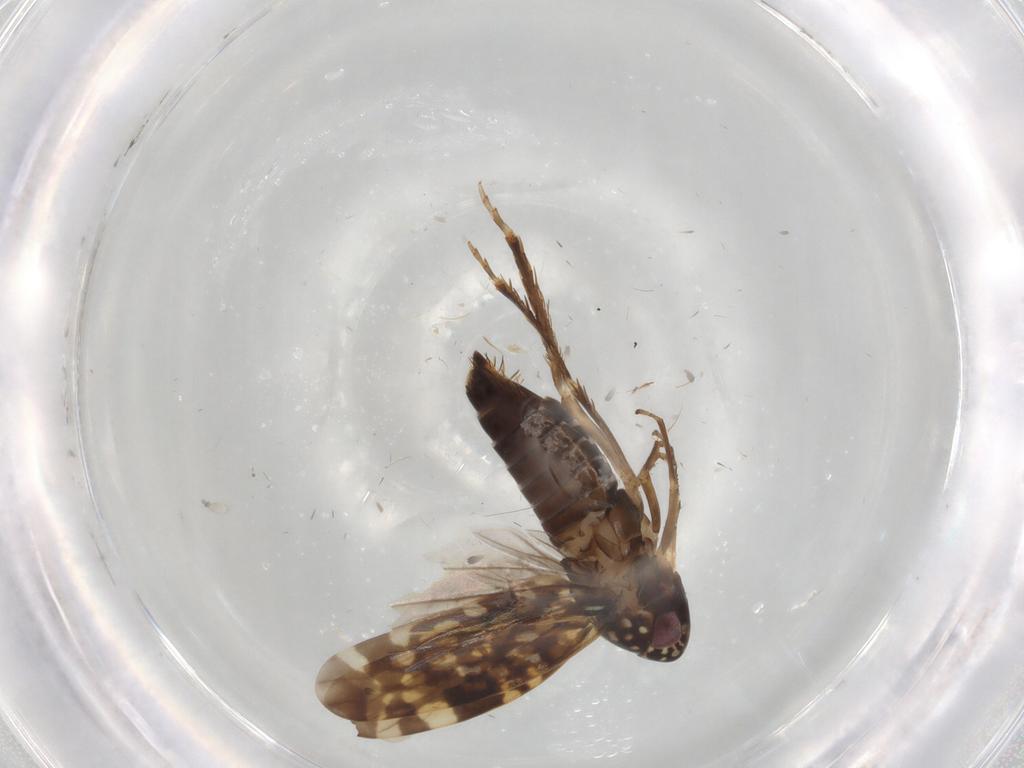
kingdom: Animalia
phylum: Arthropoda
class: Insecta
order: Hemiptera
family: Cicadellidae
